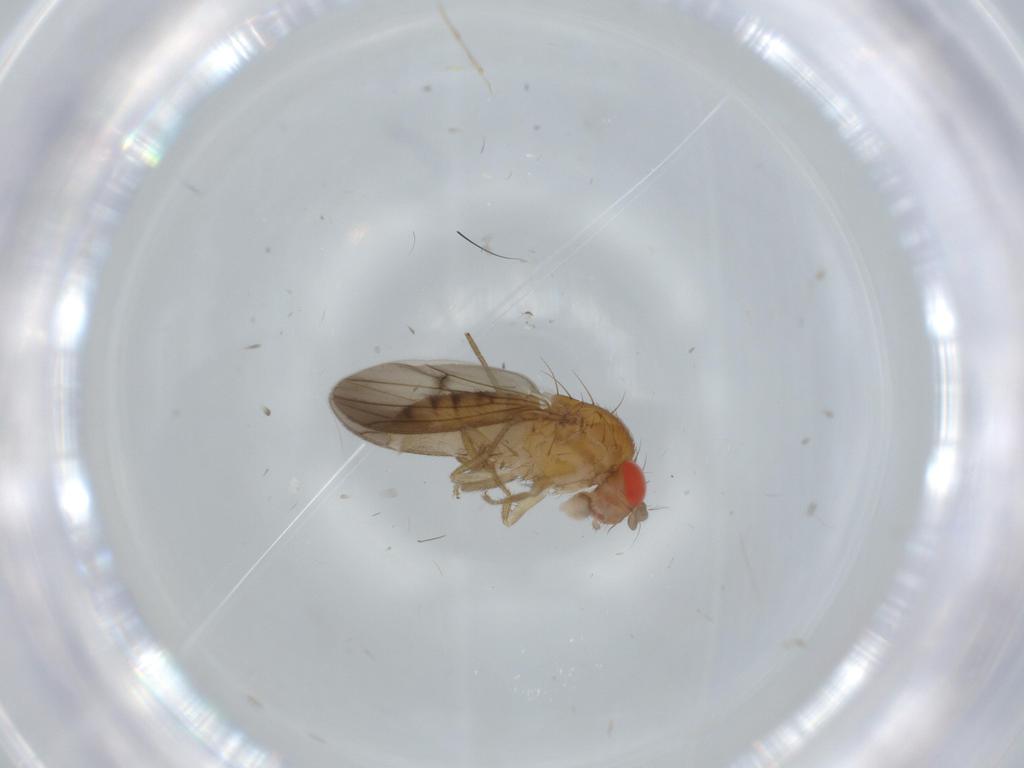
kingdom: Animalia
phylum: Arthropoda
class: Insecta
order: Diptera
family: Drosophilidae
